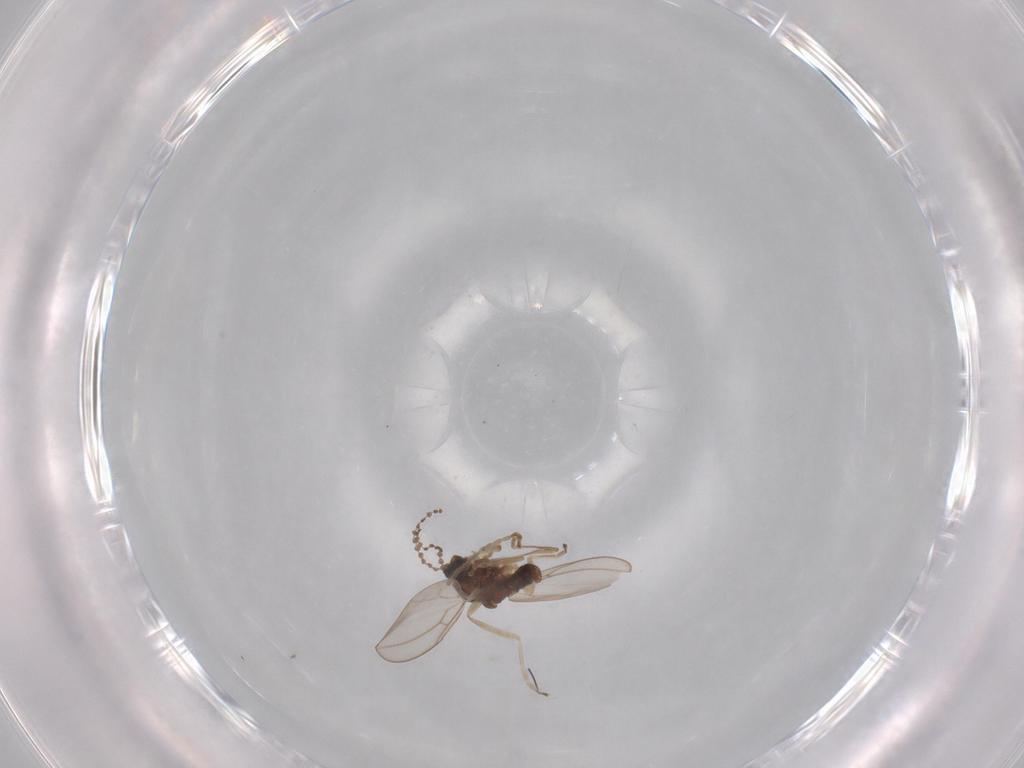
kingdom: Animalia
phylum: Arthropoda
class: Insecta
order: Diptera
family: Cecidomyiidae
